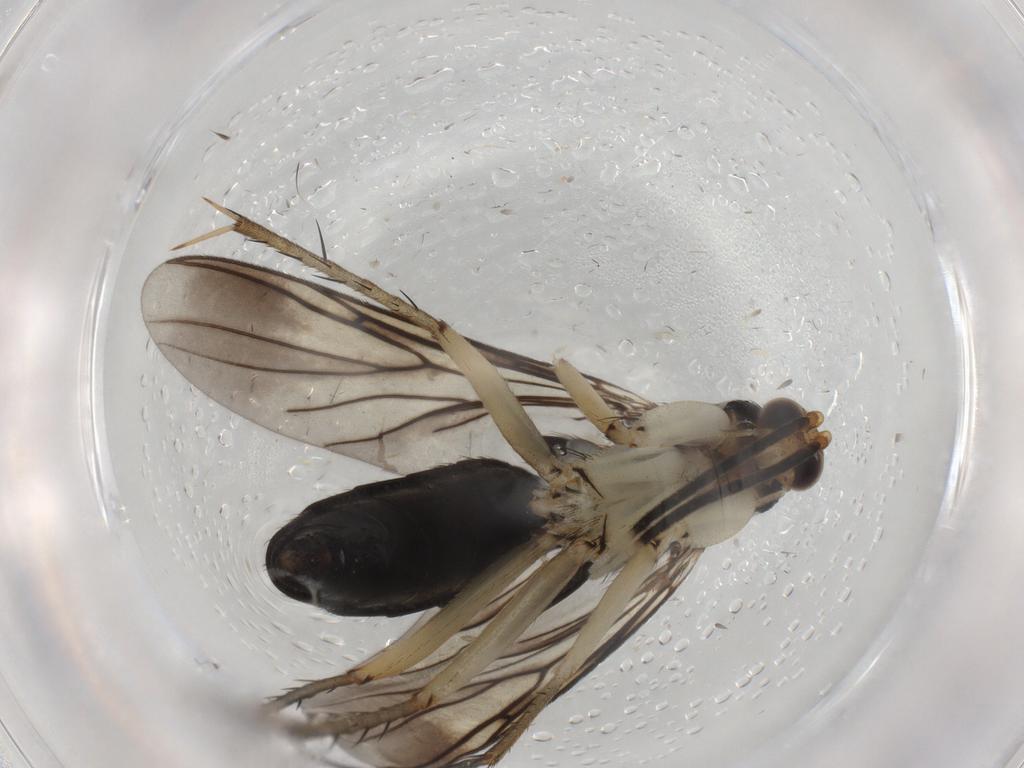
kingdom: Animalia
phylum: Arthropoda
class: Insecta
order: Diptera
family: Mycetophilidae
